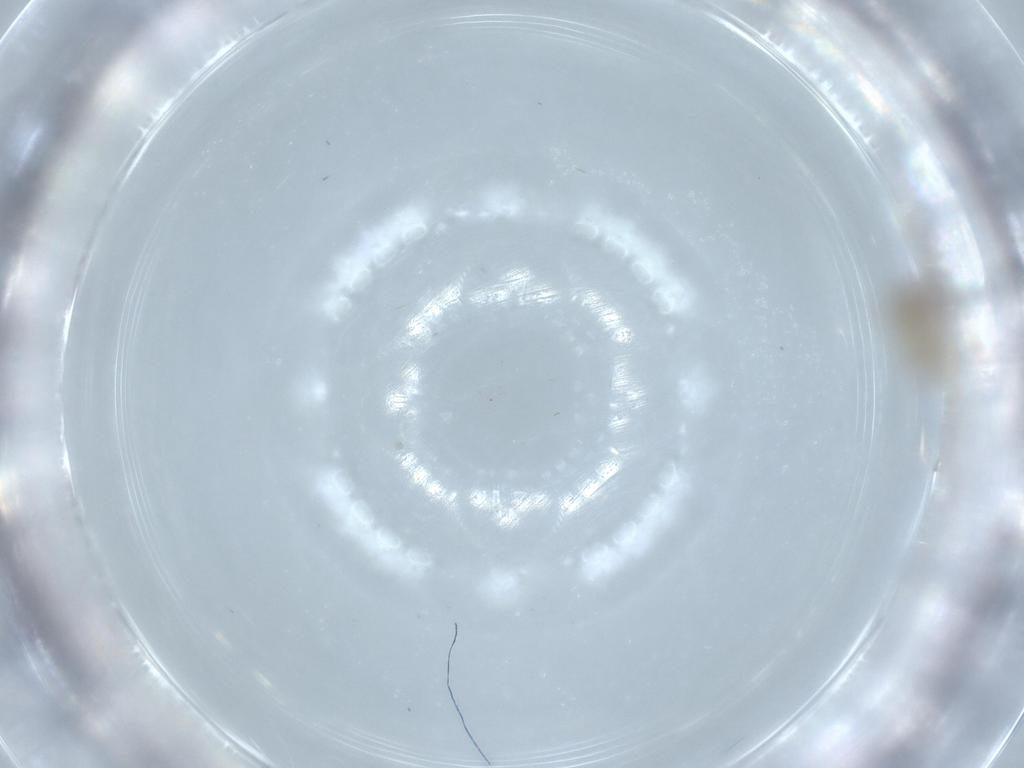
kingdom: Animalia
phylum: Arthropoda
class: Insecta
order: Diptera
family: Cecidomyiidae
